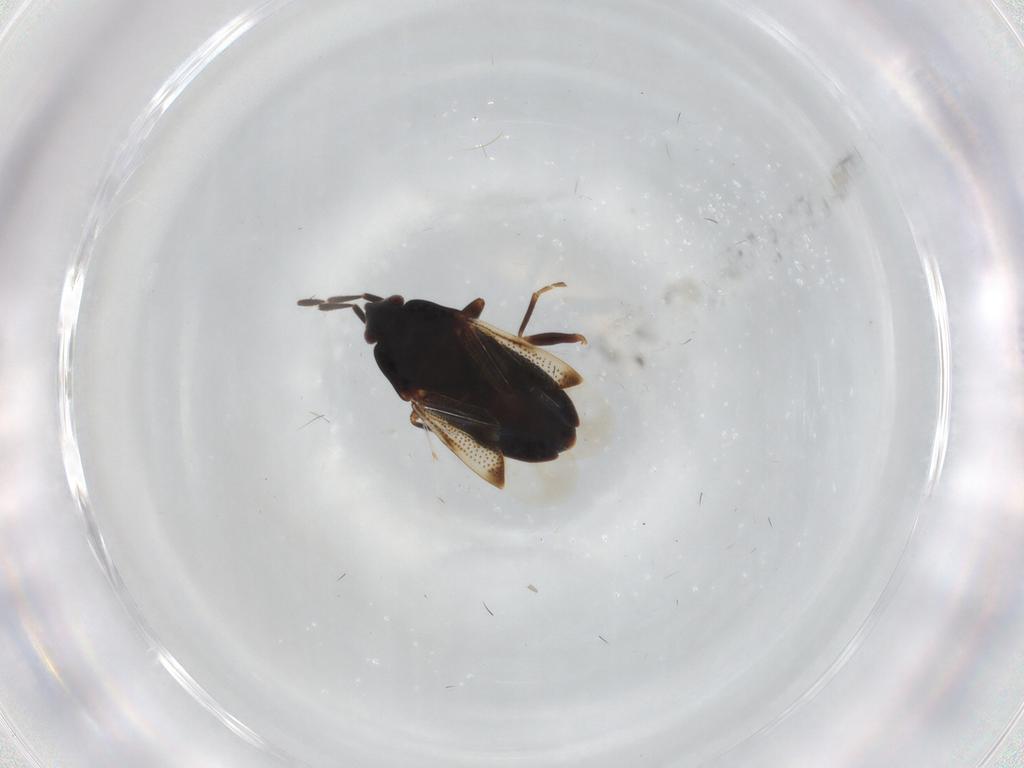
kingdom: Animalia
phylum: Arthropoda
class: Insecta
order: Hemiptera
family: Rhyparochromidae
